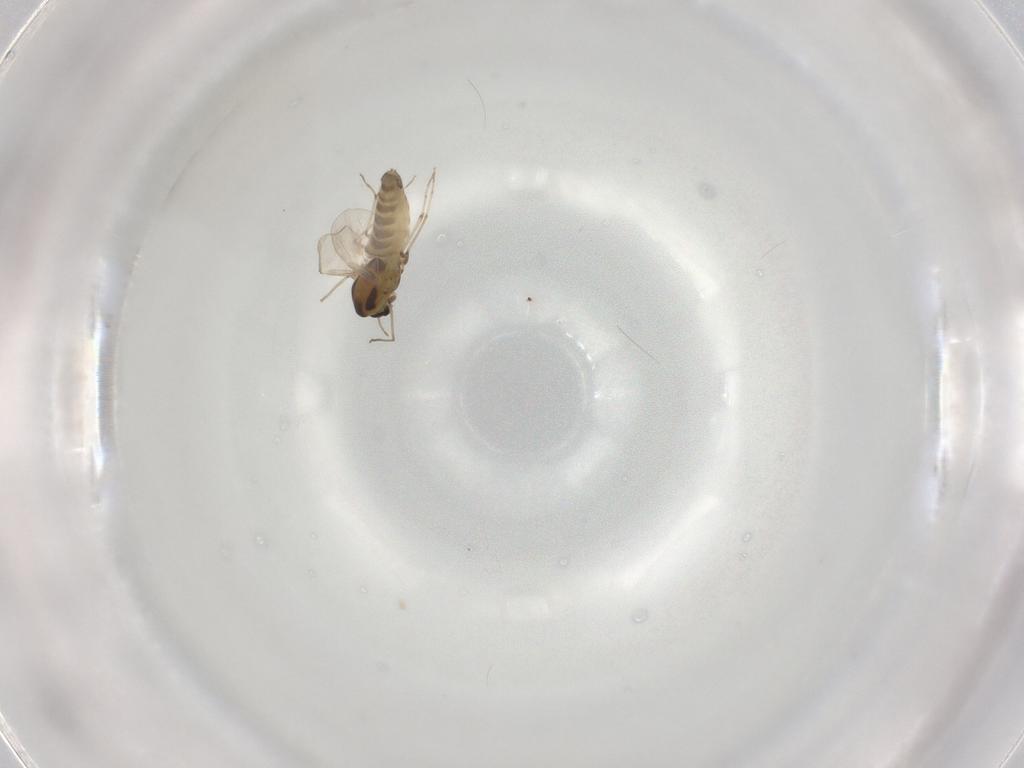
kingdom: Animalia
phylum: Arthropoda
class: Insecta
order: Diptera
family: Chironomidae
